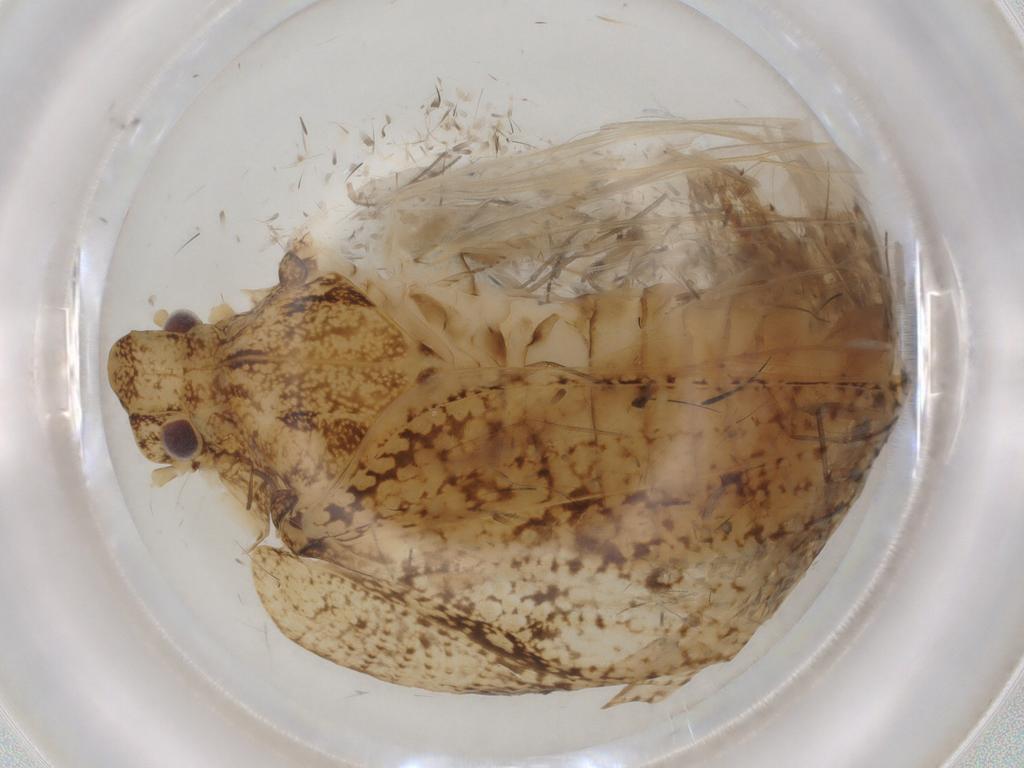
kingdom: Animalia
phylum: Arthropoda
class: Insecta
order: Hemiptera
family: Flatidae
